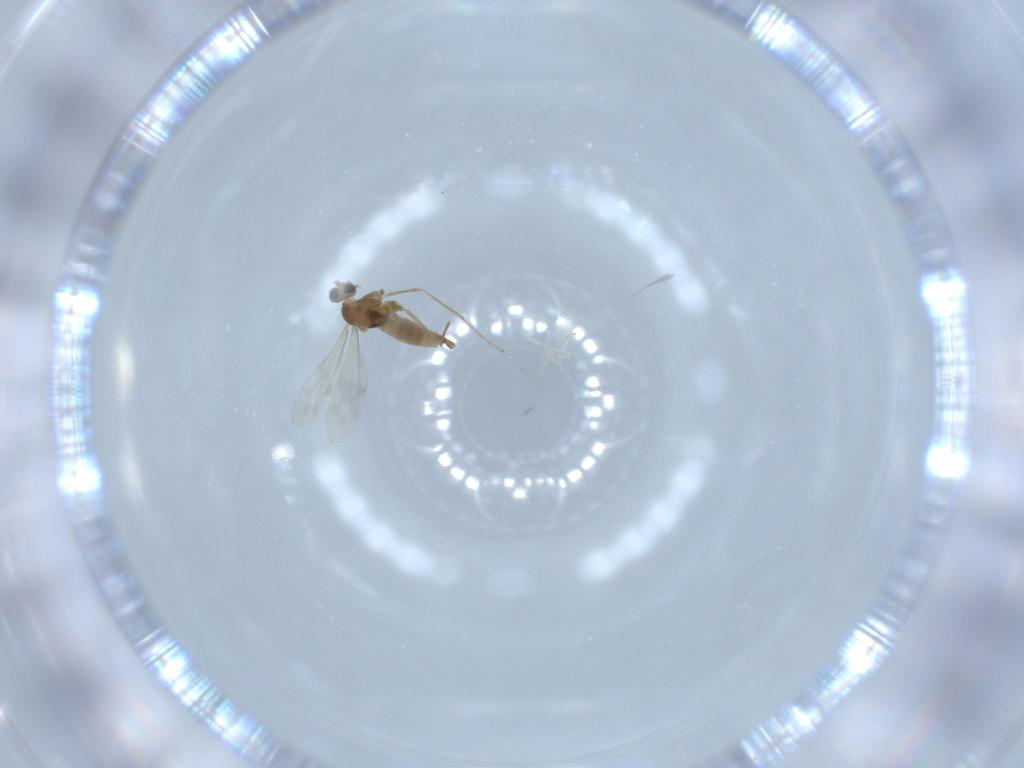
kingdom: Animalia
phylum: Arthropoda
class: Insecta
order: Diptera
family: Cecidomyiidae
